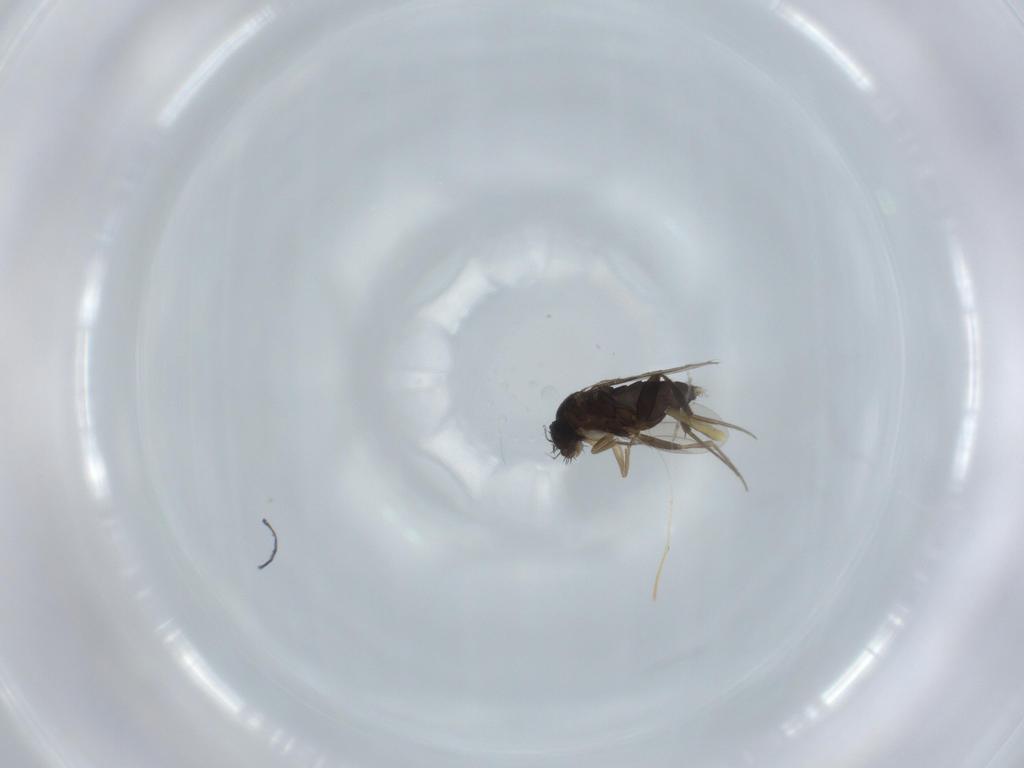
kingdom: Animalia
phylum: Arthropoda
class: Insecta
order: Diptera
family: Phoridae
